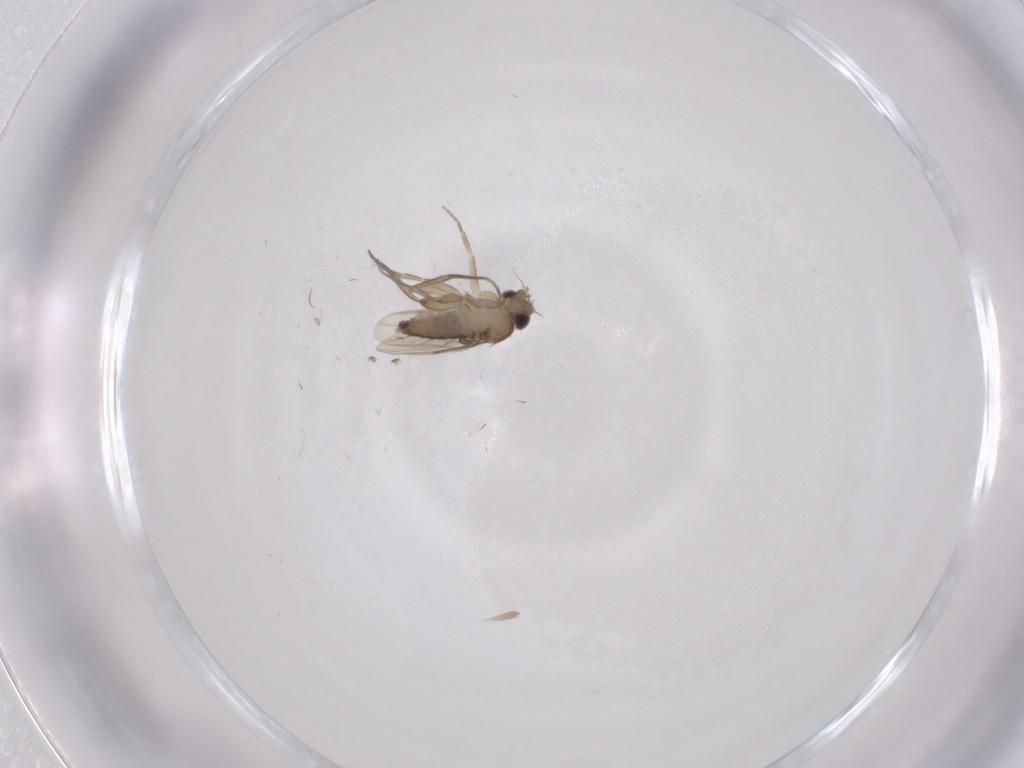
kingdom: Animalia
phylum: Arthropoda
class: Insecta
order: Diptera
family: Phoridae
